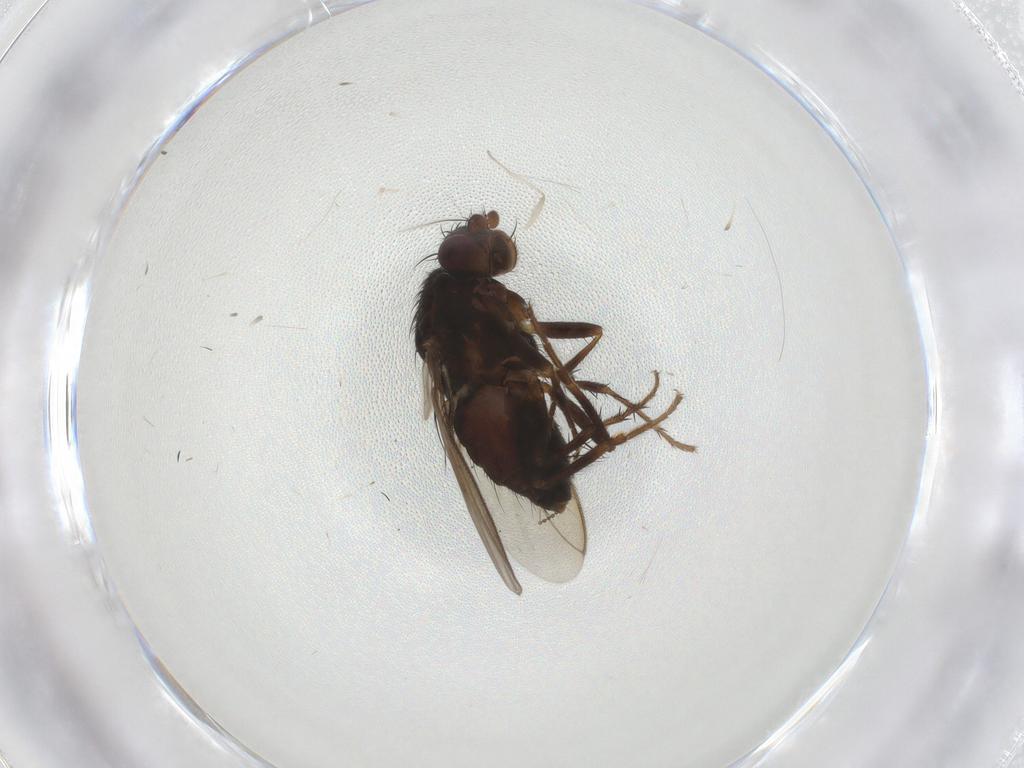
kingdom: Animalia
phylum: Arthropoda
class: Insecta
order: Diptera
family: Sphaeroceridae
